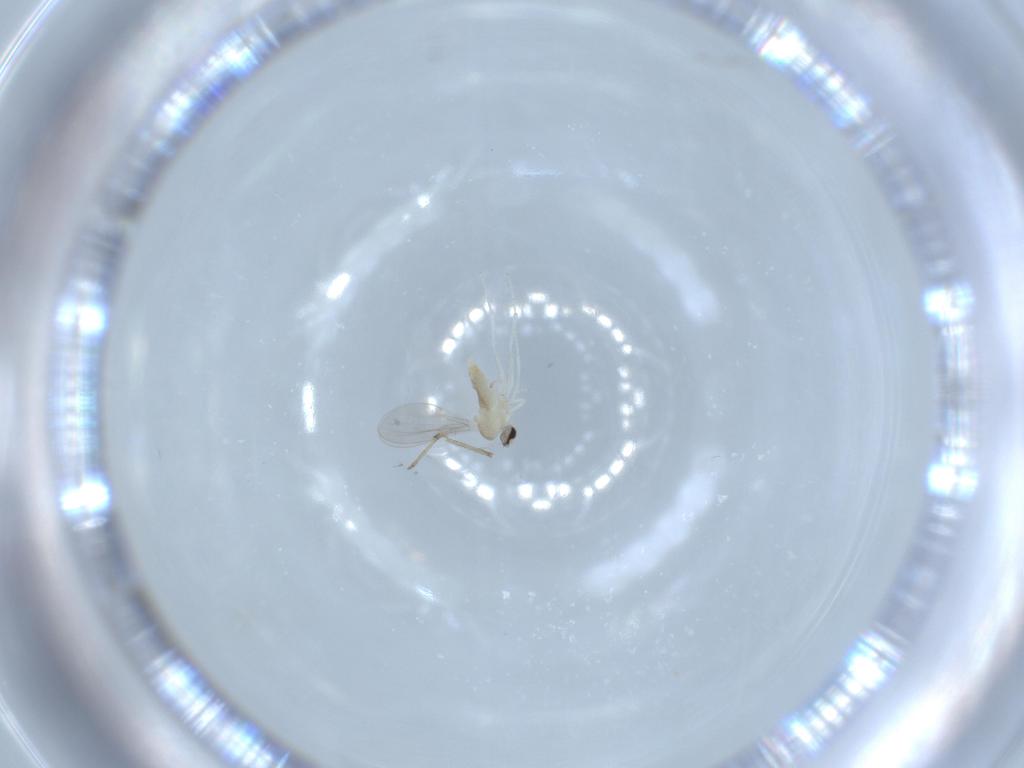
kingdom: Animalia
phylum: Arthropoda
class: Insecta
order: Diptera
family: Cecidomyiidae
